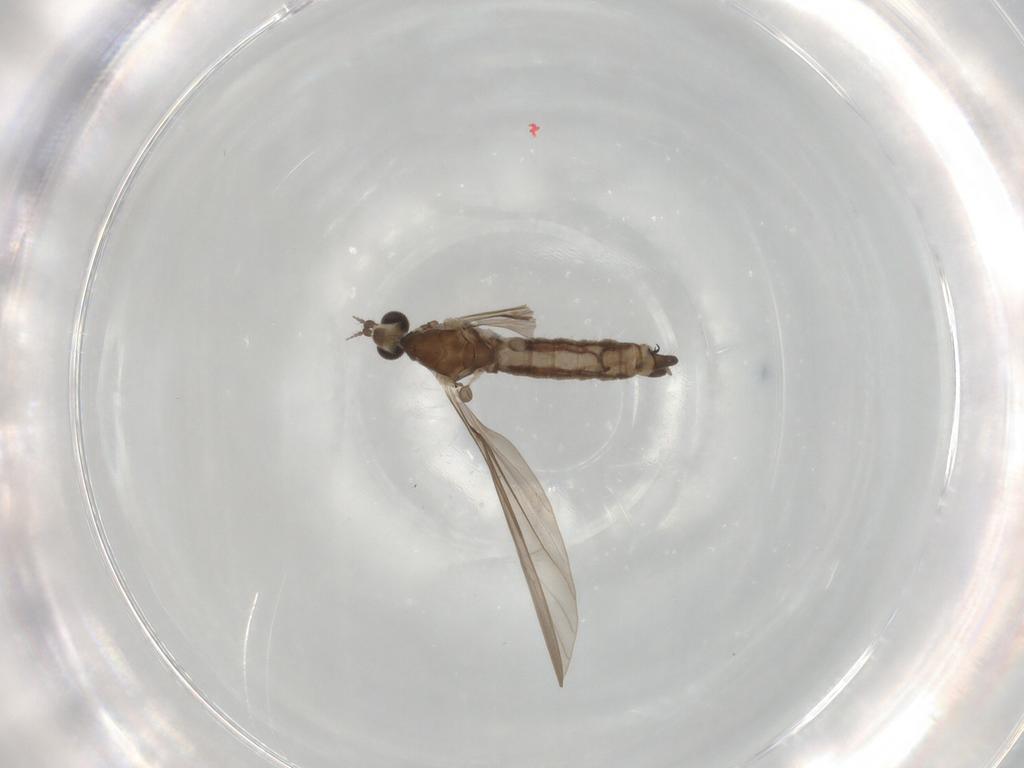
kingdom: Animalia
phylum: Arthropoda
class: Insecta
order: Diptera
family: Limoniidae
